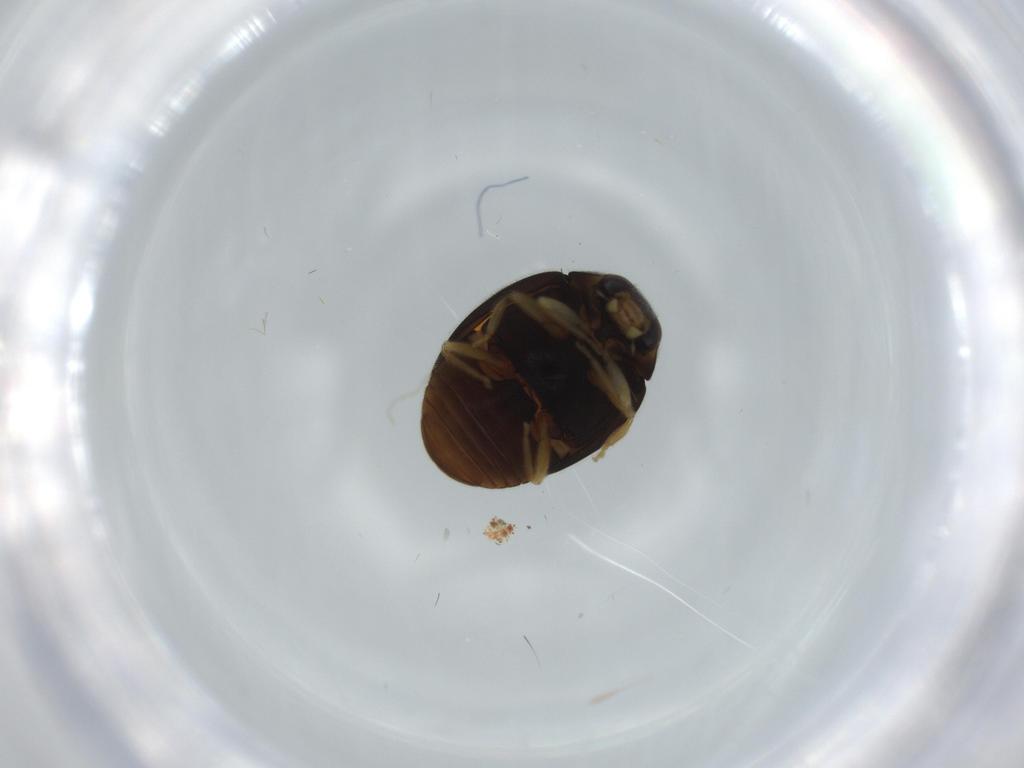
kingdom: Animalia
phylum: Arthropoda
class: Insecta
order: Coleoptera
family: Coccinellidae
